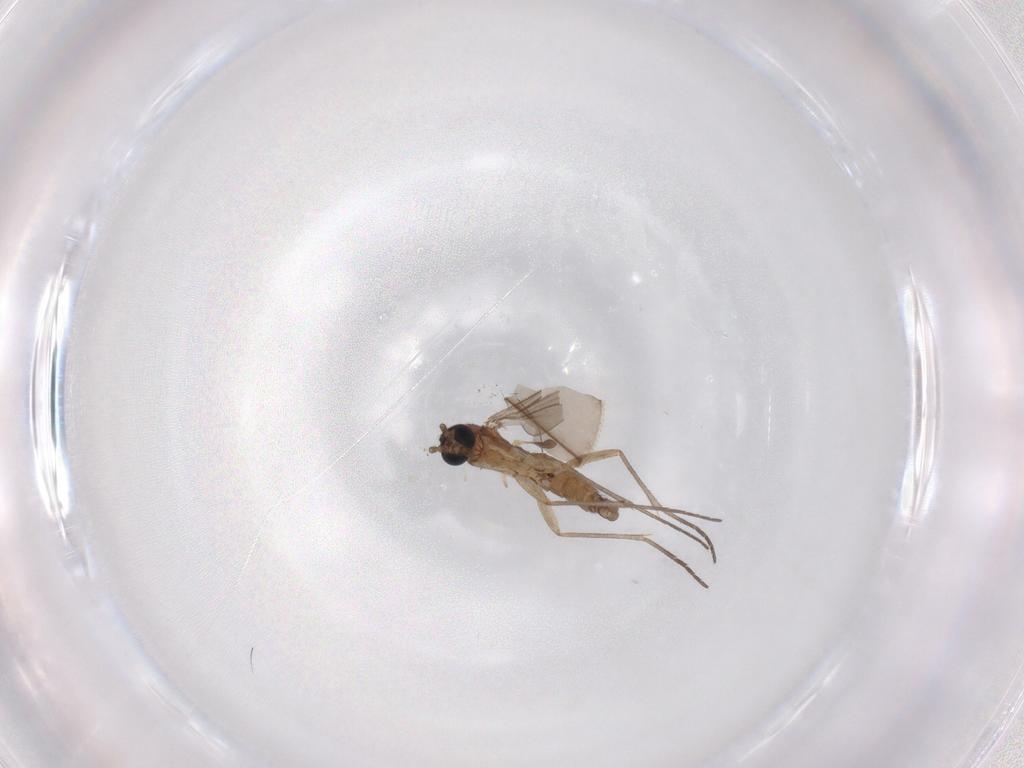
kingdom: Animalia
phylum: Arthropoda
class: Insecta
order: Diptera
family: Sciaridae
